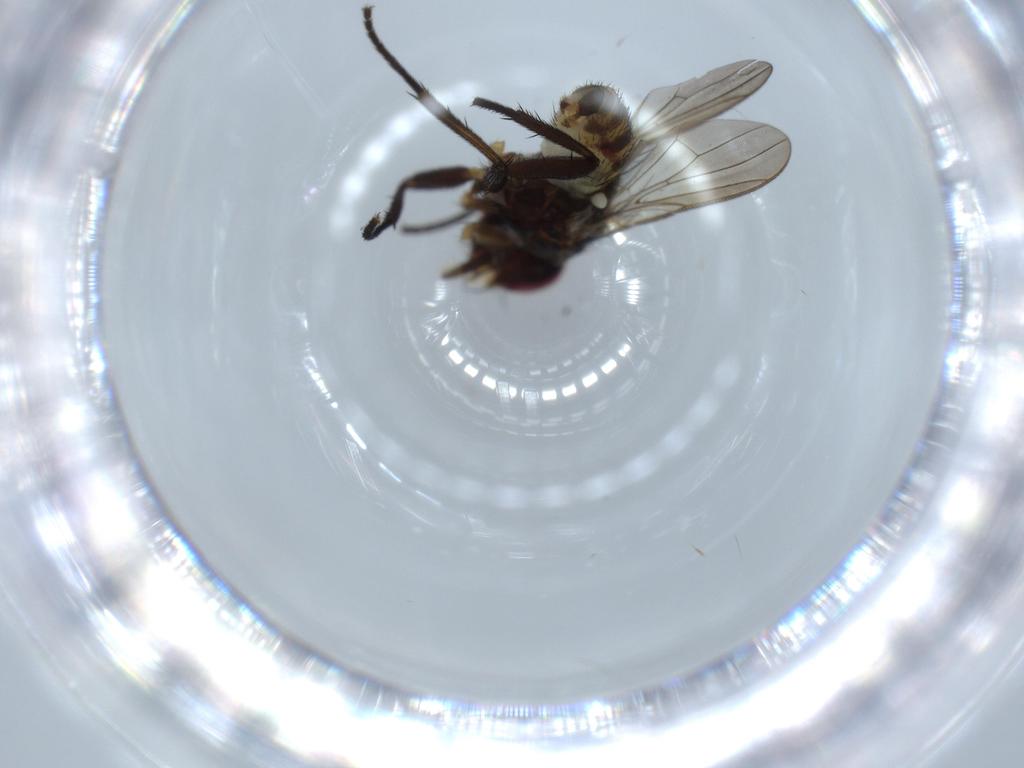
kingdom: Animalia
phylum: Arthropoda
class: Insecta
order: Diptera
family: Anthomyiidae
